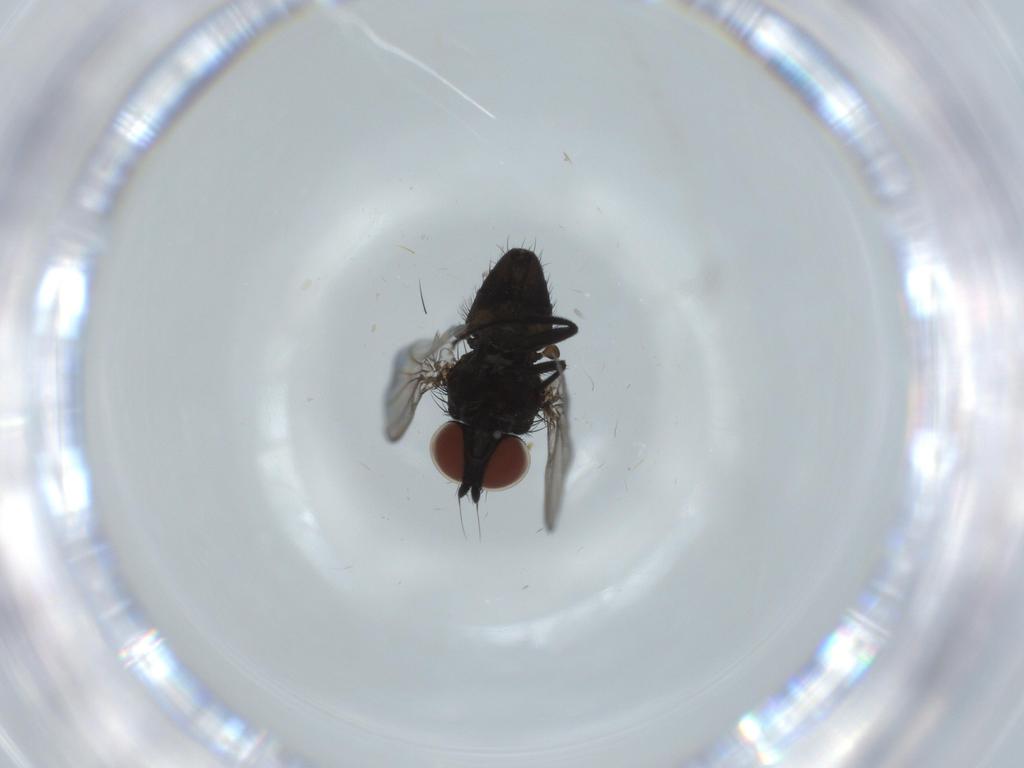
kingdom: Animalia
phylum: Arthropoda
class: Insecta
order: Diptera
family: Milichiidae
